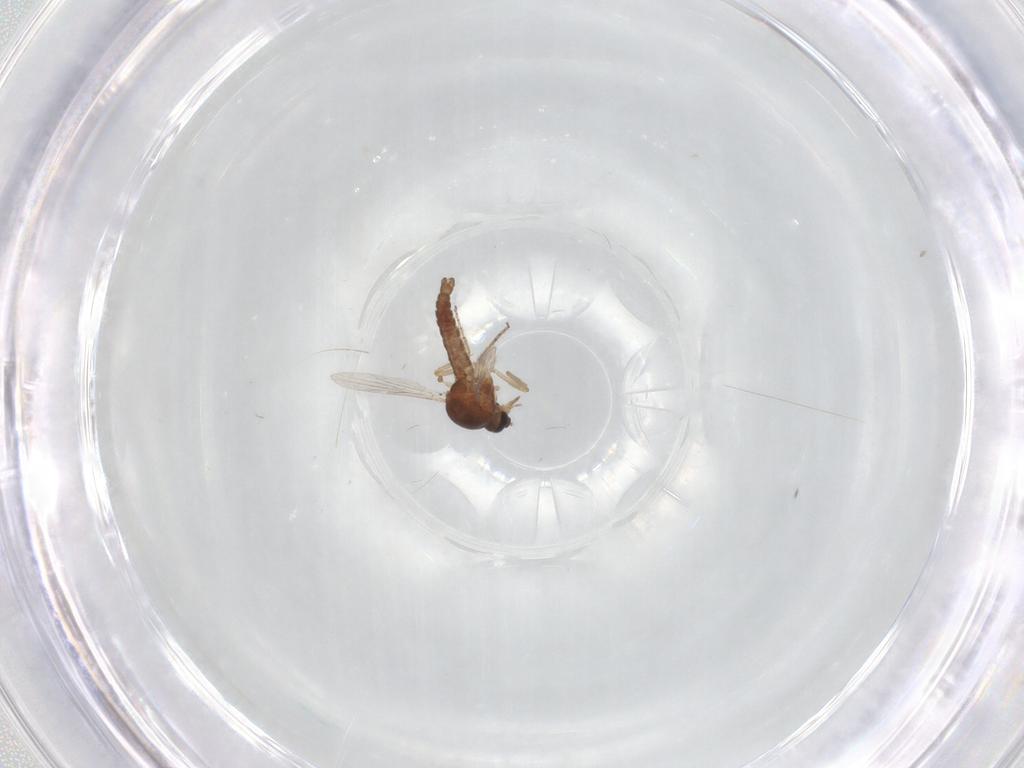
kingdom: Animalia
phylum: Arthropoda
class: Insecta
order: Diptera
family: Ceratopogonidae
